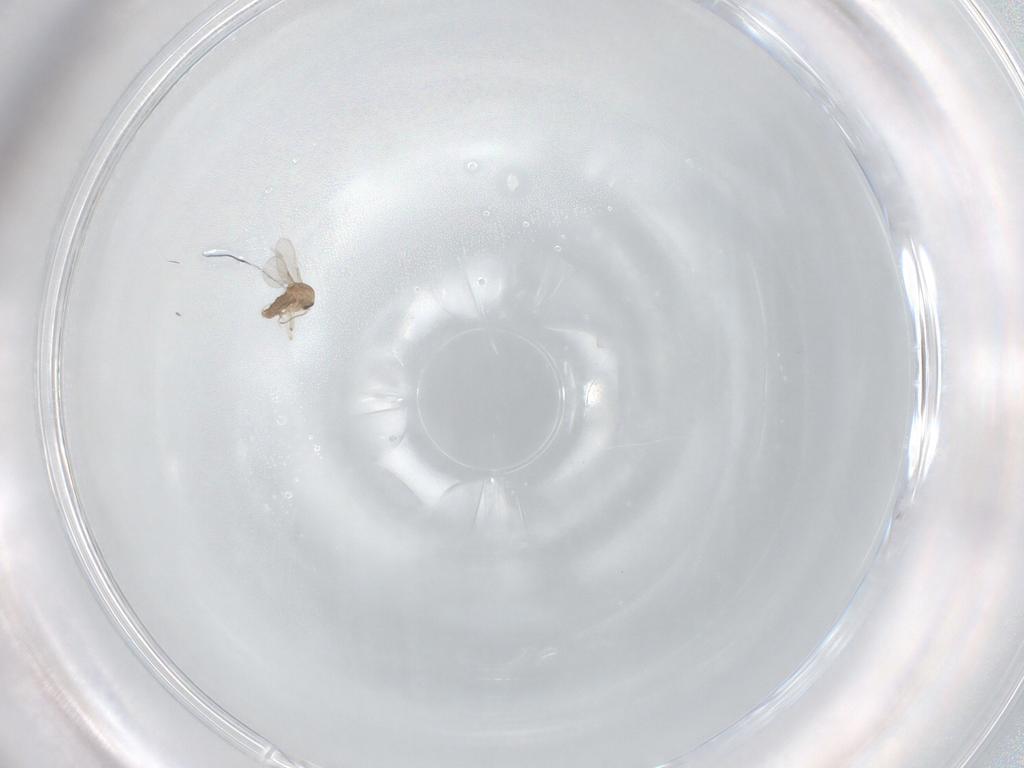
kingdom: Animalia
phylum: Arthropoda
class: Insecta
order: Diptera
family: Ceratopogonidae
